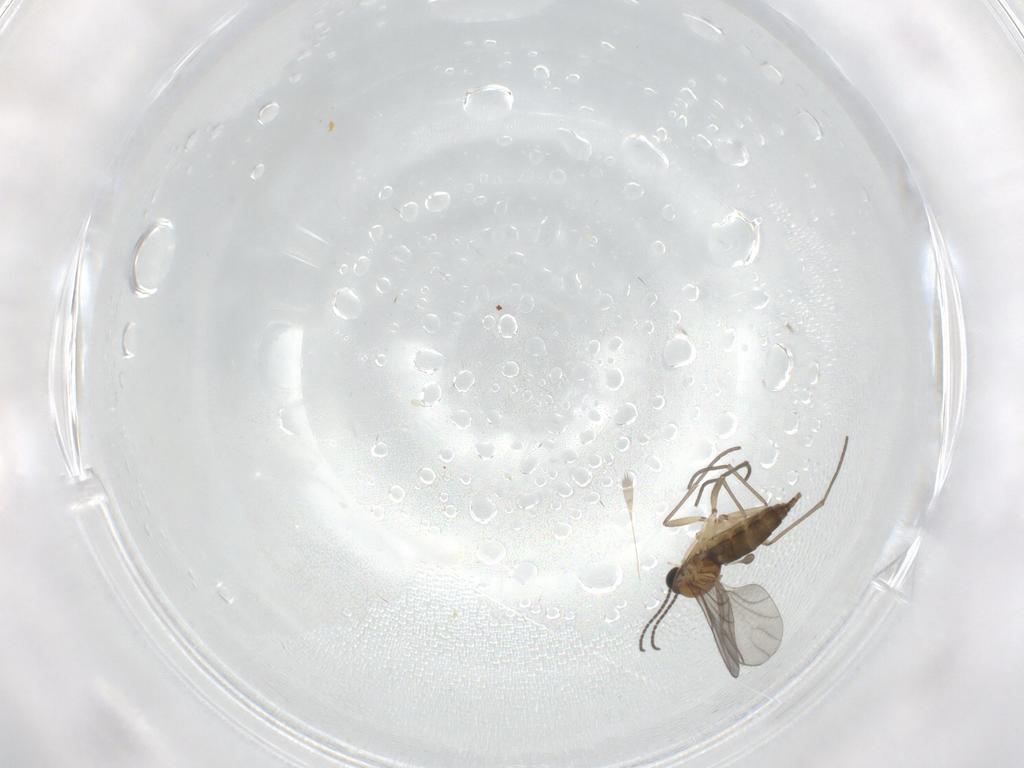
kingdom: Animalia
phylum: Arthropoda
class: Insecta
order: Diptera
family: Sciaridae
